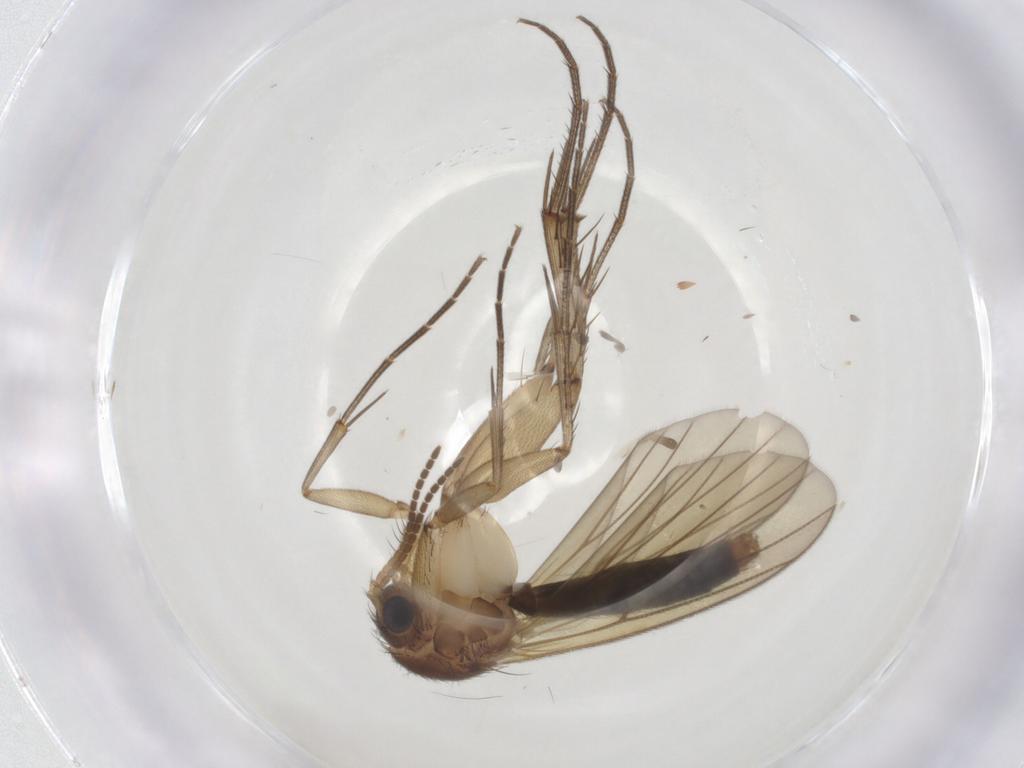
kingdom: Animalia
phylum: Arthropoda
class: Insecta
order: Diptera
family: Mycetophilidae
